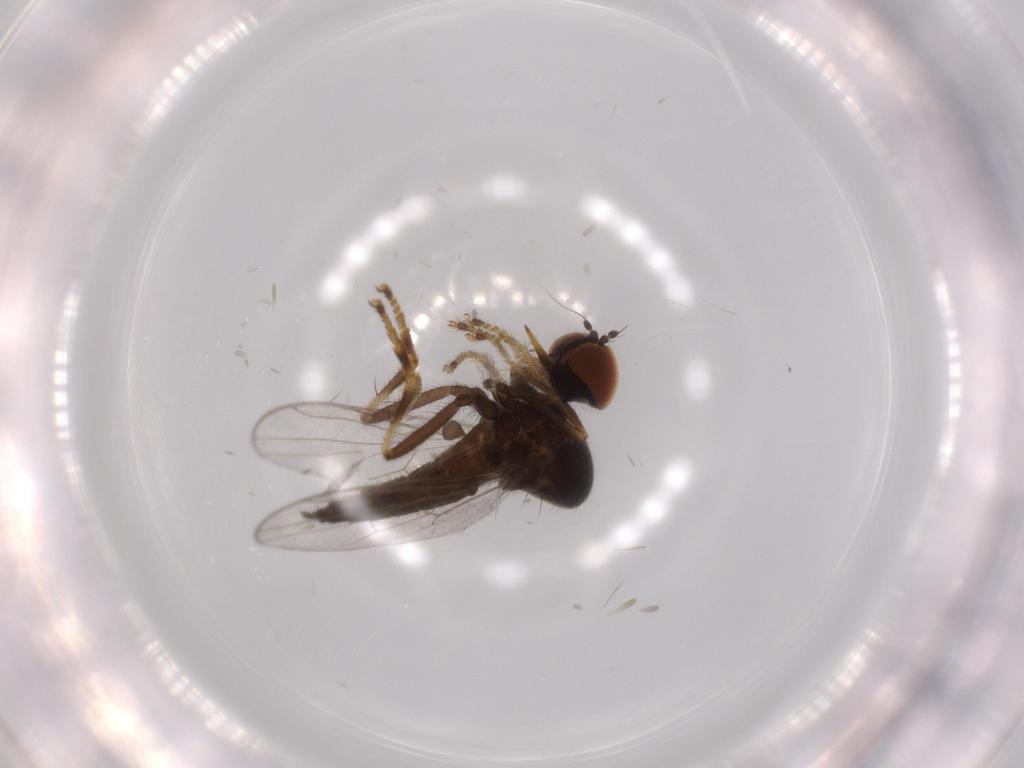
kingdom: Animalia
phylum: Arthropoda
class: Insecta
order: Diptera
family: Hybotidae
